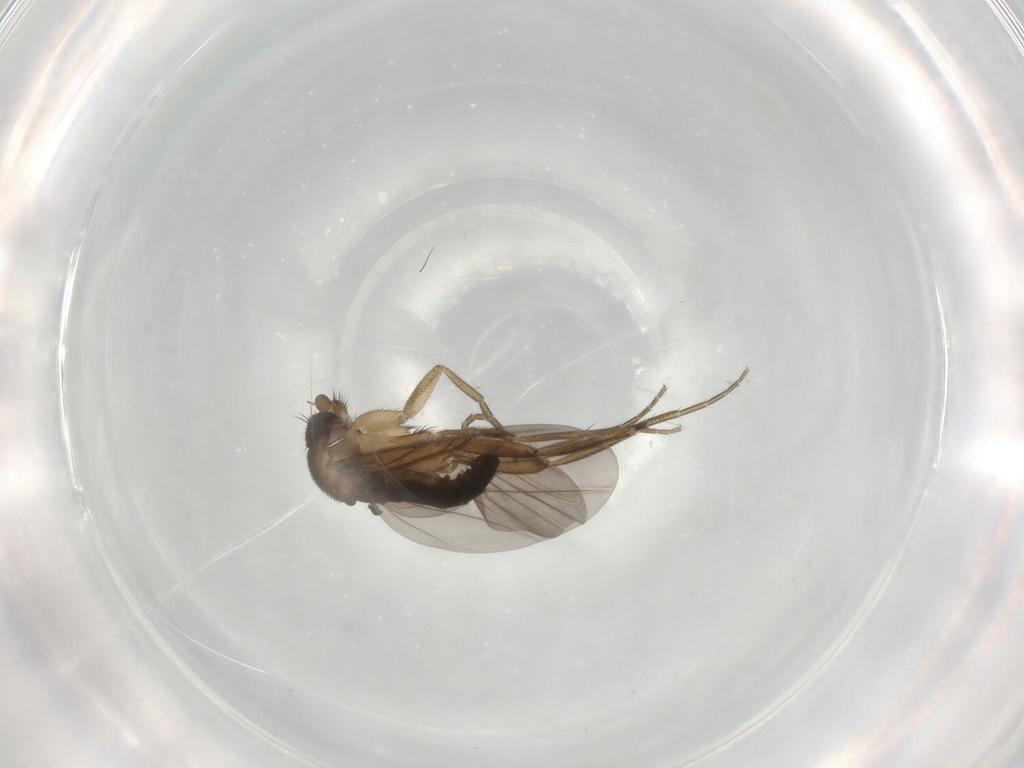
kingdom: Animalia
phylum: Arthropoda
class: Insecta
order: Diptera
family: Phoridae
